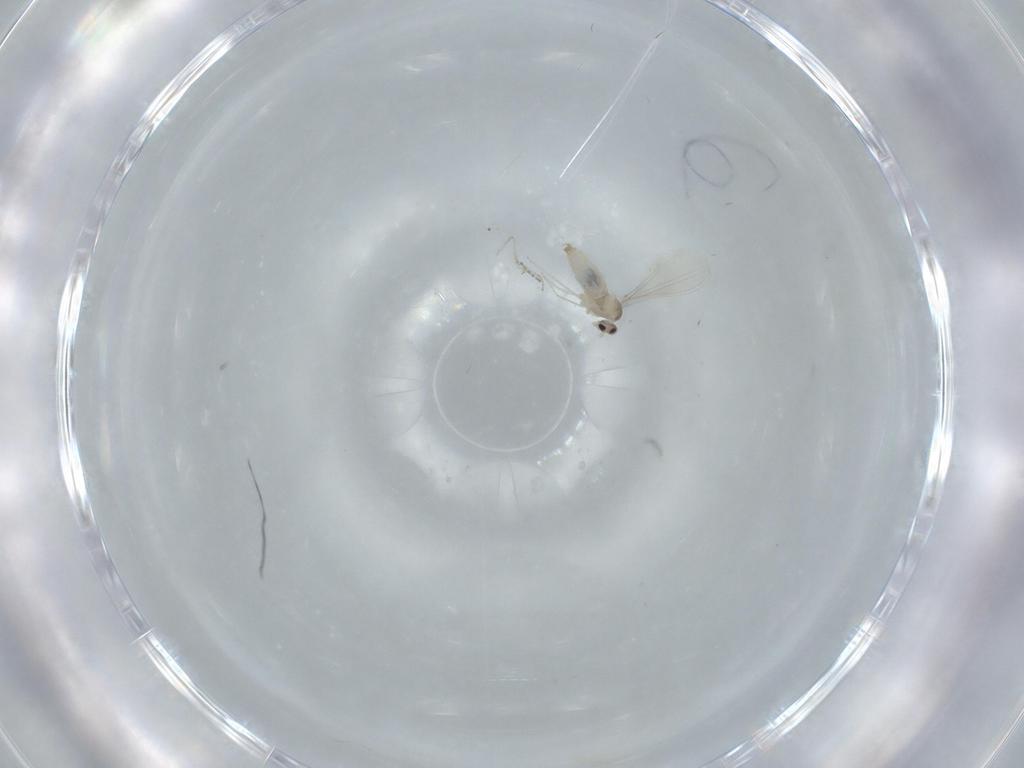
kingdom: Animalia
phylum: Arthropoda
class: Insecta
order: Diptera
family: Cecidomyiidae
